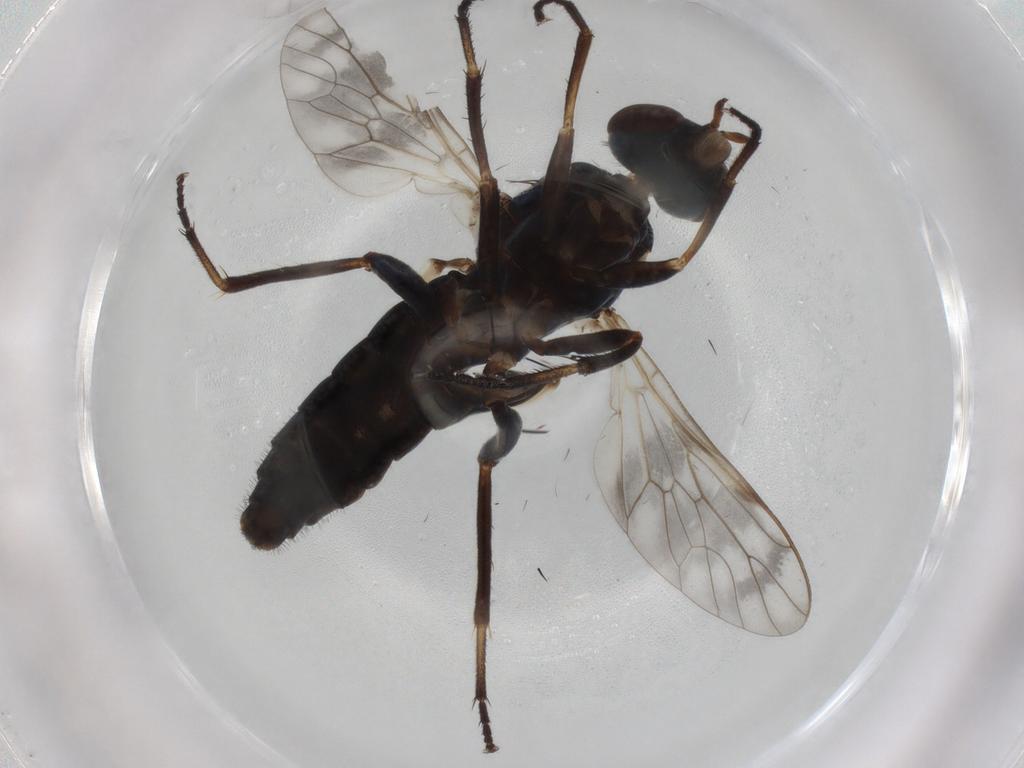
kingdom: Animalia
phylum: Arthropoda
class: Insecta
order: Diptera
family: Therevidae
